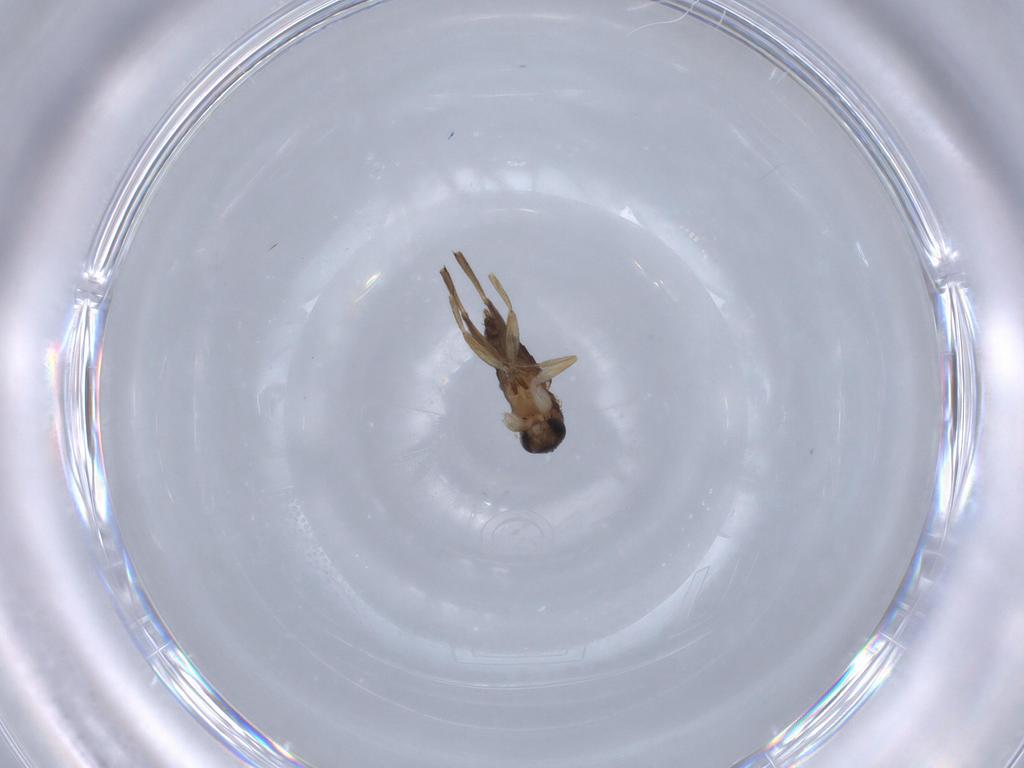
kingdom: Animalia
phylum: Arthropoda
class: Insecta
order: Diptera
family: Phoridae
